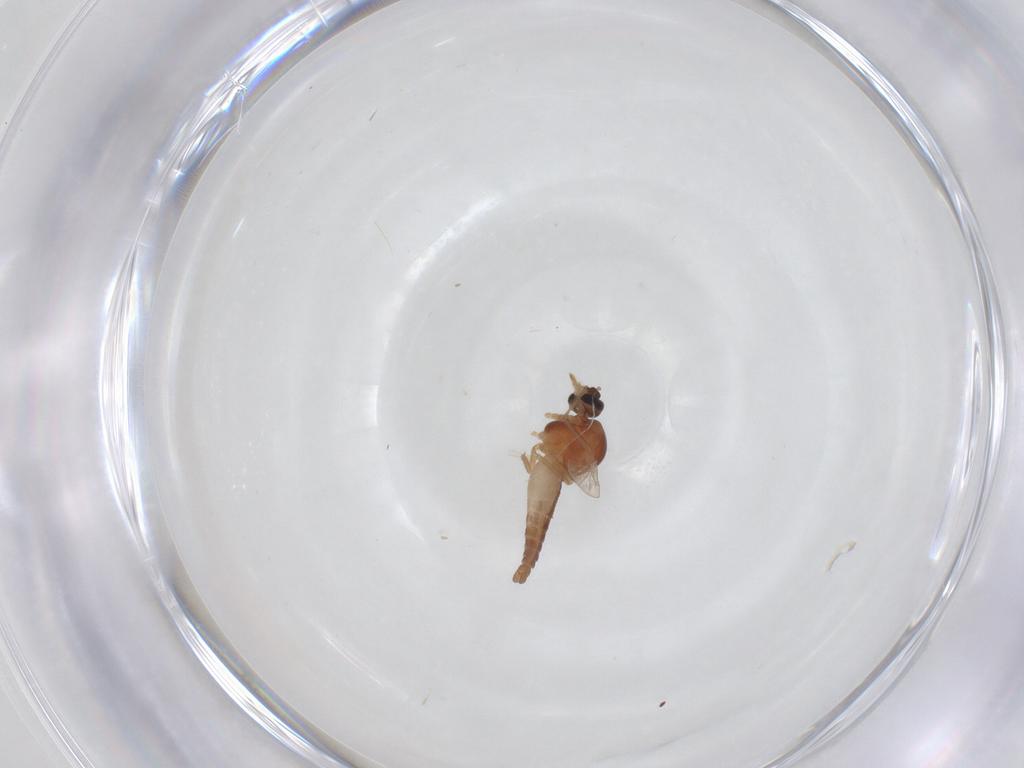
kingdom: Animalia
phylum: Arthropoda
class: Insecta
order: Diptera
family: Ceratopogonidae
